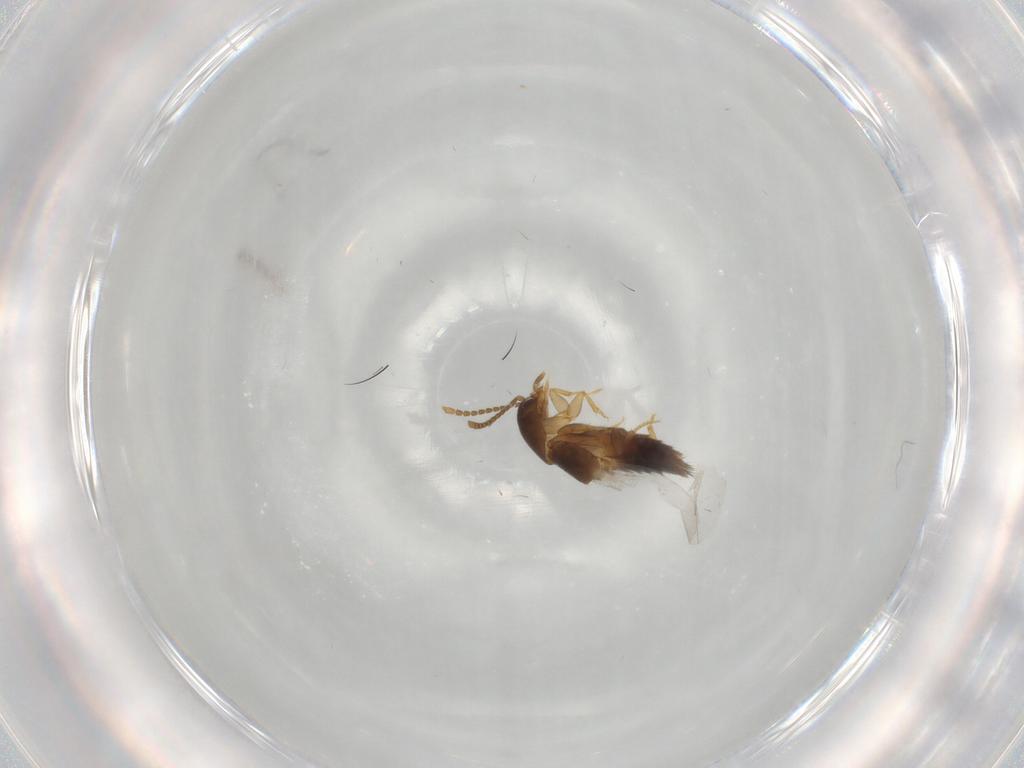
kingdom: Animalia
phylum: Arthropoda
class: Insecta
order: Coleoptera
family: Staphylinidae
